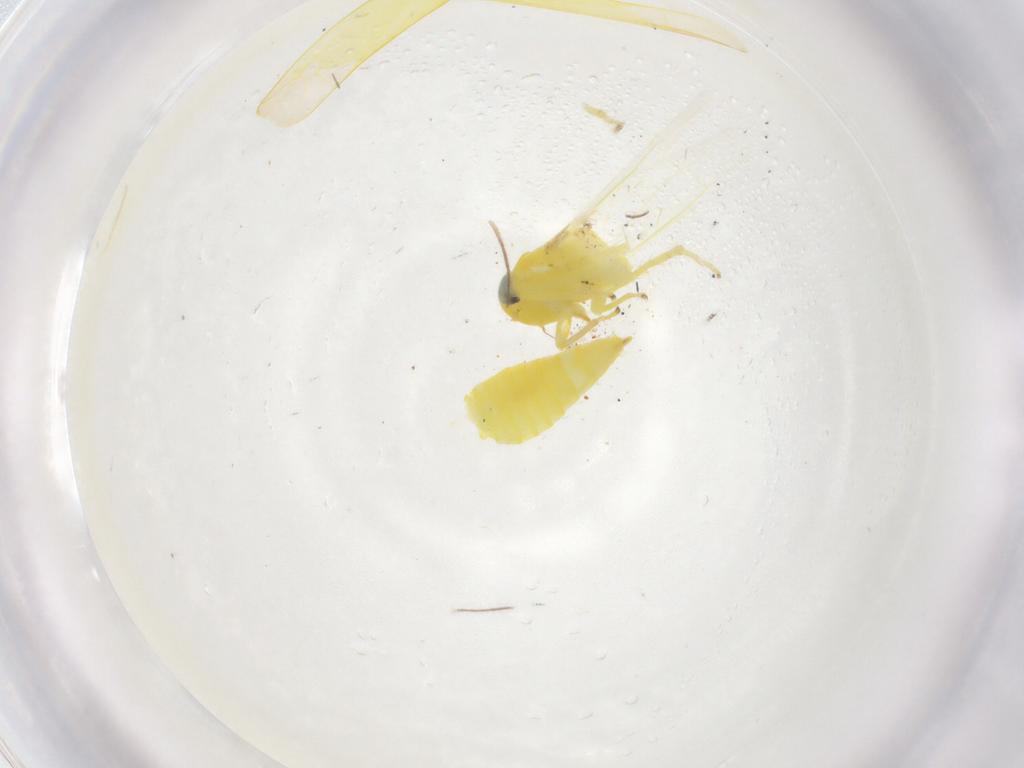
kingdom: Animalia
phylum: Arthropoda
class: Insecta
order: Hemiptera
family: Cicadellidae
